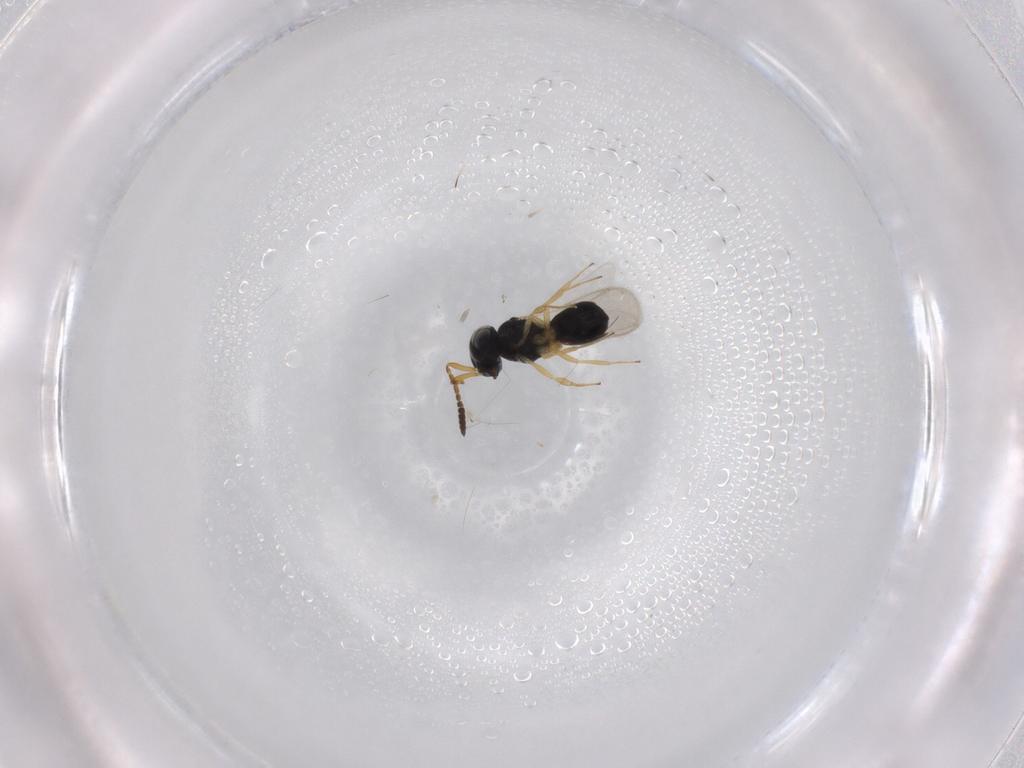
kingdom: Animalia
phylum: Arthropoda
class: Insecta
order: Hymenoptera
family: Scelionidae
